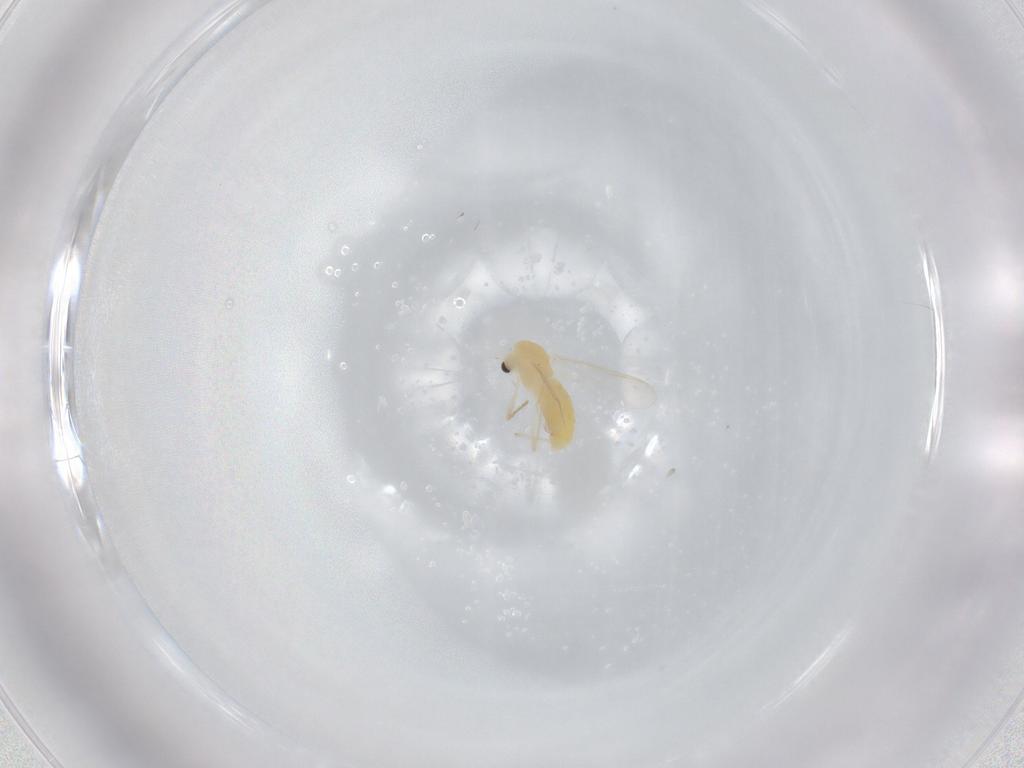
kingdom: Animalia
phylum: Arthropoda
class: Insecta
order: Diptera
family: Chironomidae
